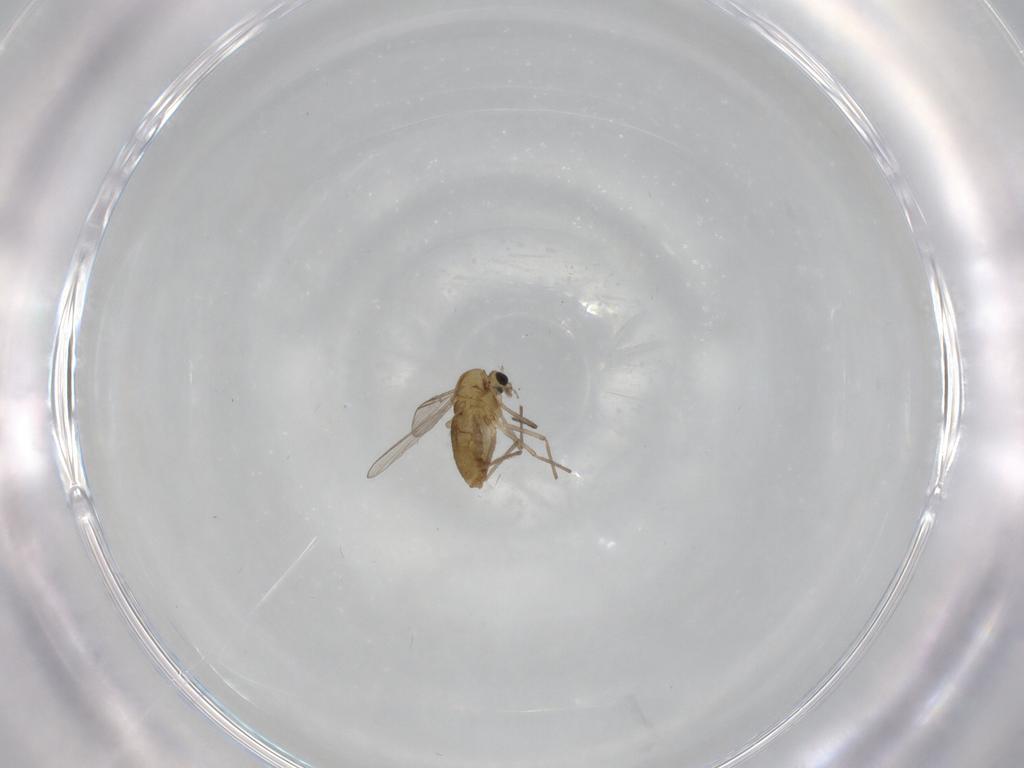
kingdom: Animalia
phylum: Arthropoda
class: Insecta
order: Diptera
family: Chironomidae
